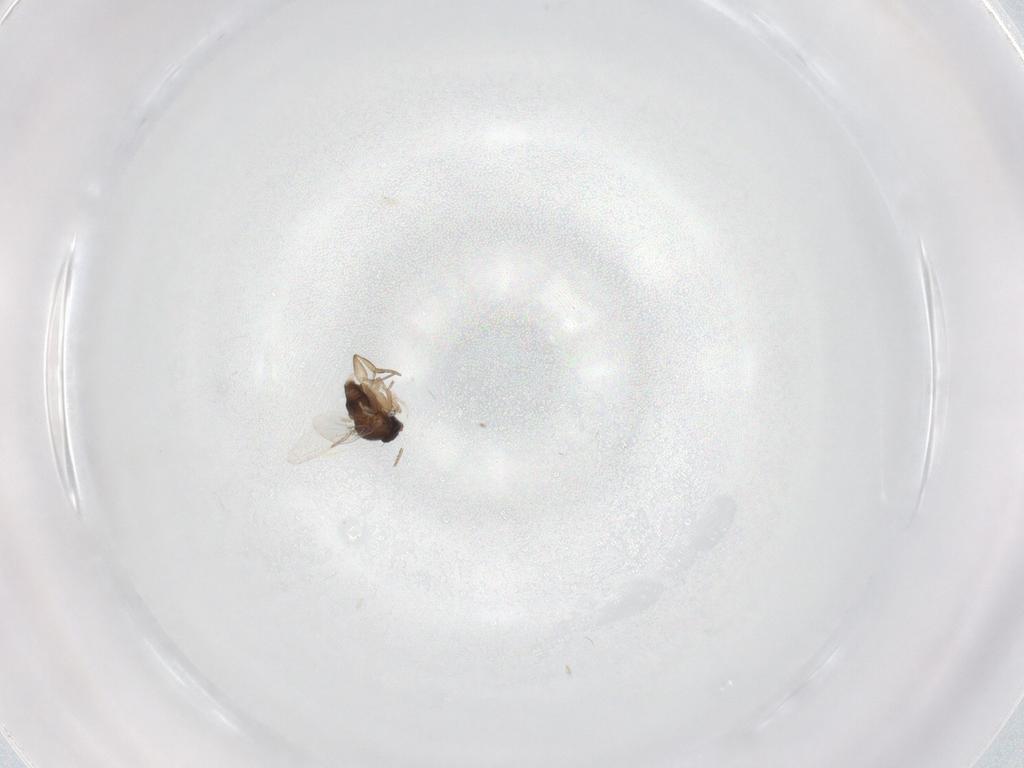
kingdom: Animalia
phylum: Arthropoda
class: Insecta
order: Diptera
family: Phoridae
